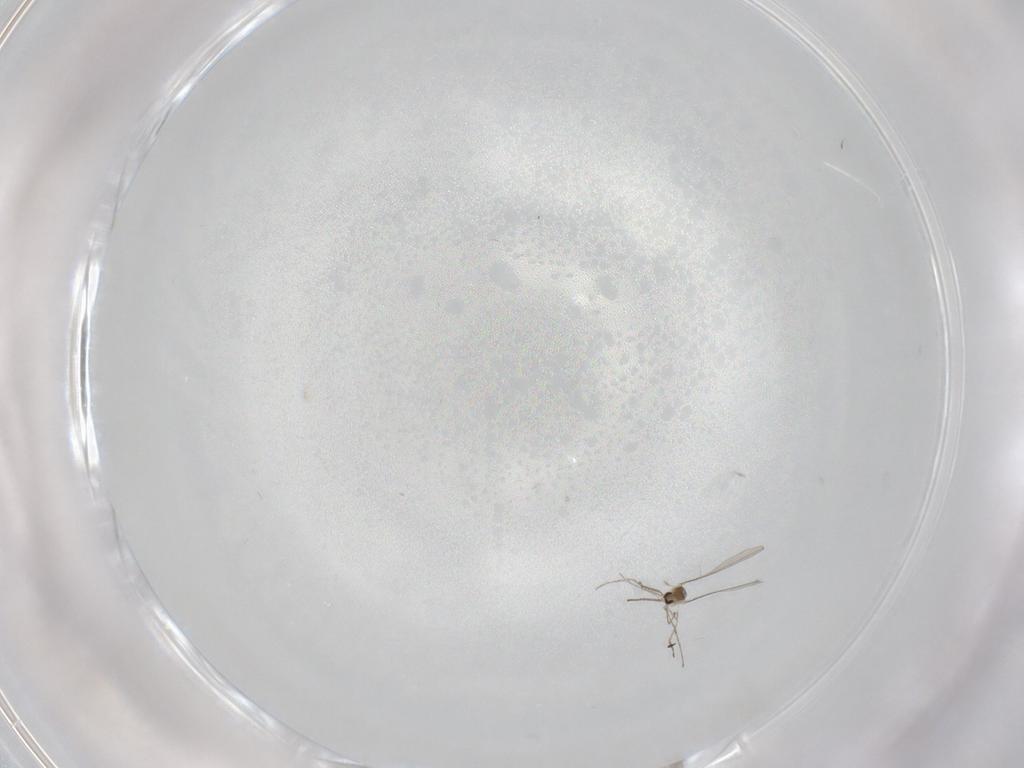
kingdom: Animalia
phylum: Arthropoda
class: Insecta
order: Diptera
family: Cecidomyiidae
